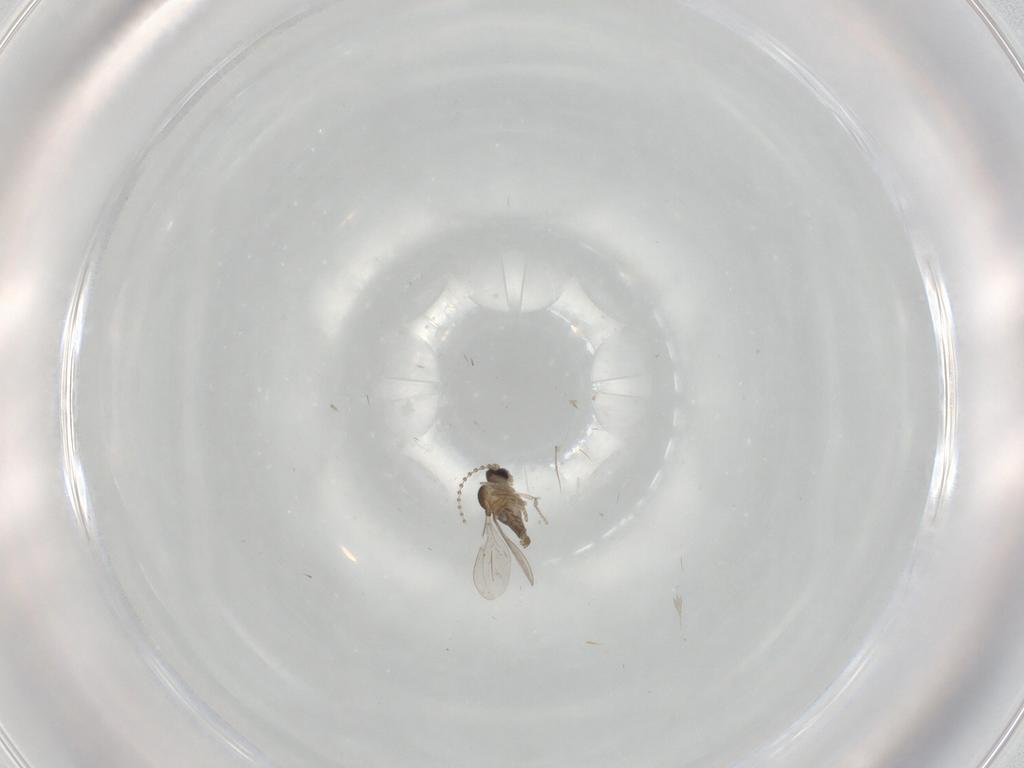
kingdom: Animalia
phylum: Arthropoda
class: Insecta
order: Diptera
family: Cecidomyiidae
